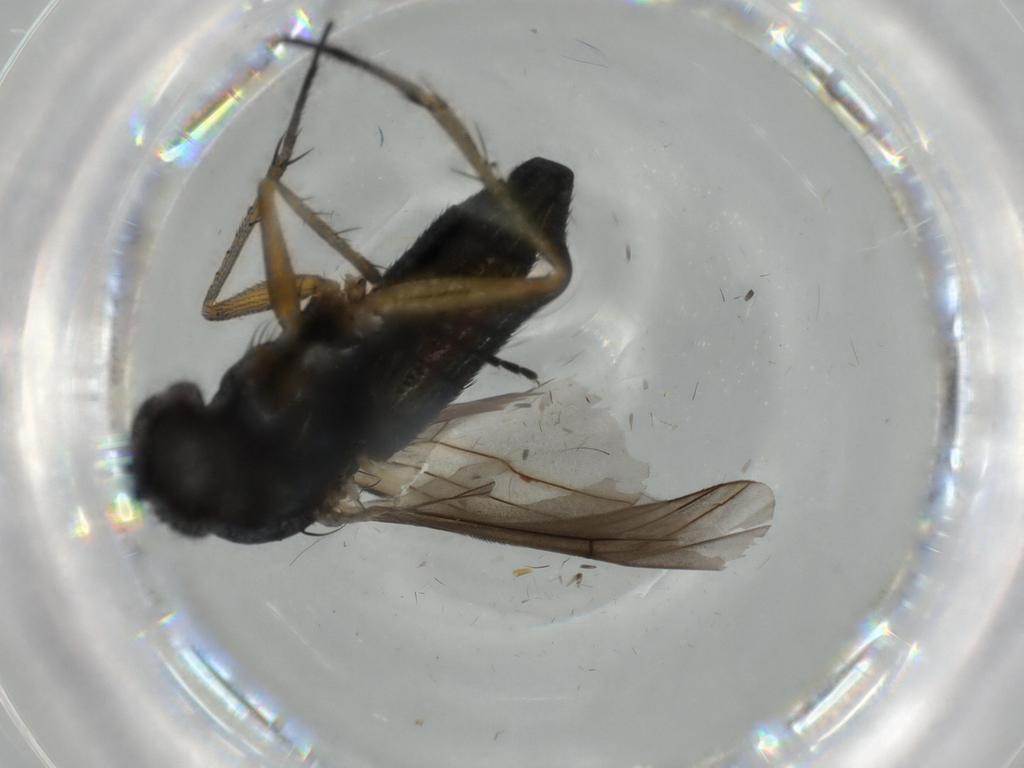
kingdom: Animalia
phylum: Arthropoda
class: Insecta
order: Diptera
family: Dolichopodidae
